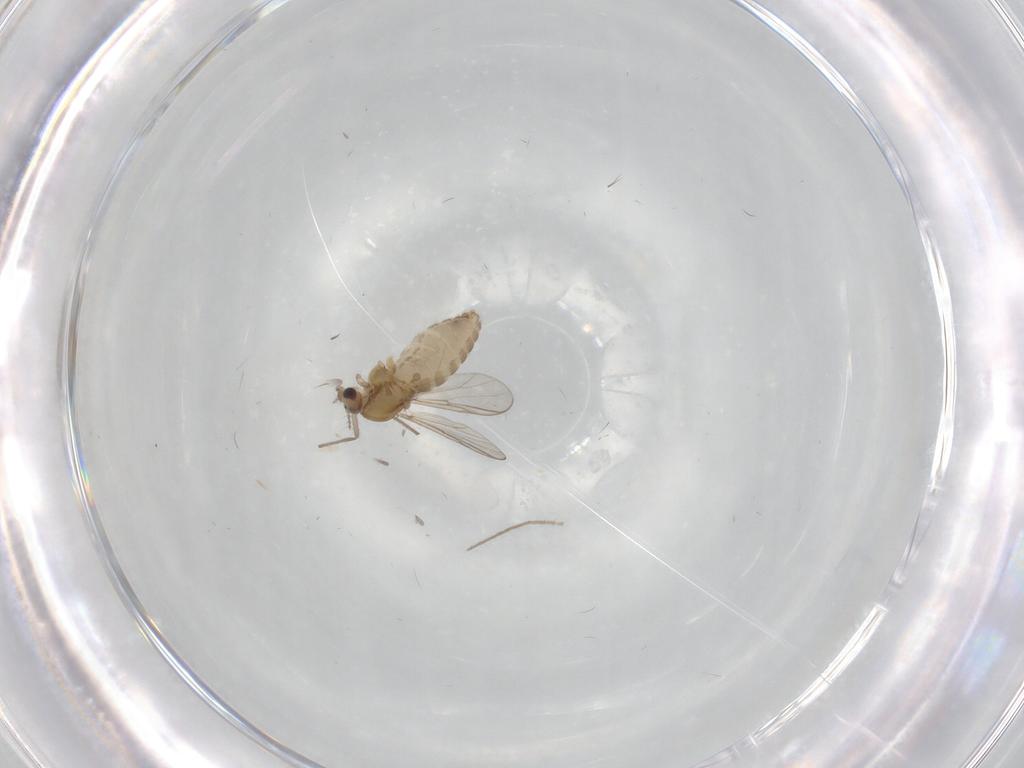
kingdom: Animalia
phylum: Arthropoda
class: Insecta
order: Diptera
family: Chironomidae
